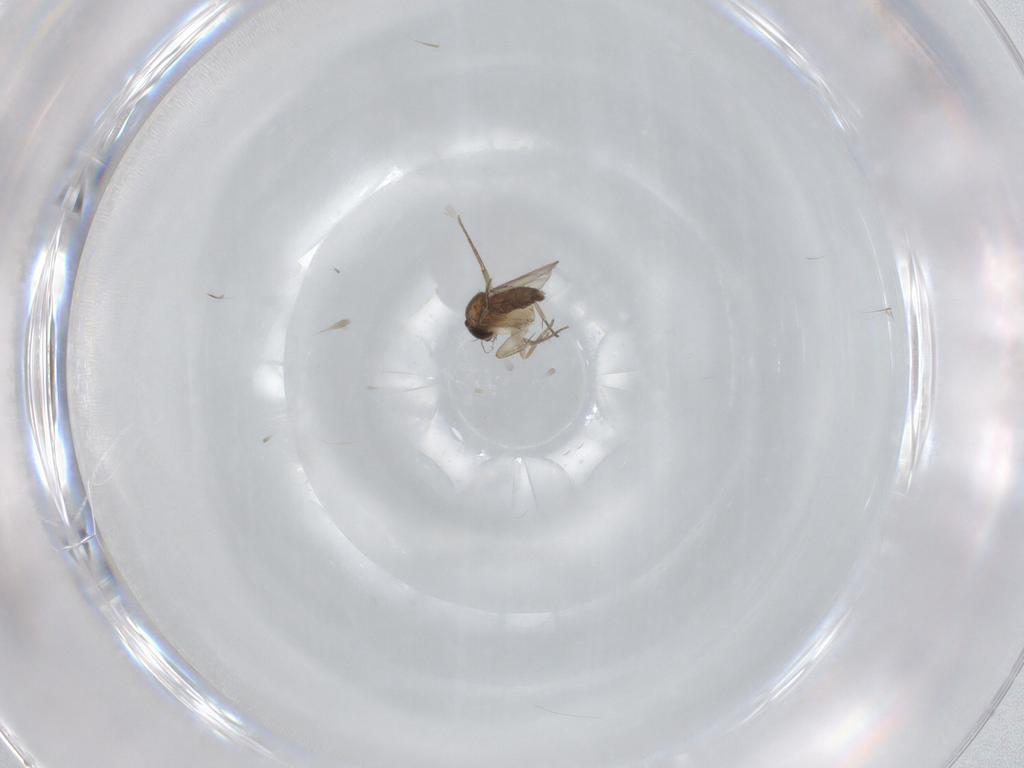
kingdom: Animalia
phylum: Arthropoda
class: Insecta
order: Diptera
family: Phoridae
